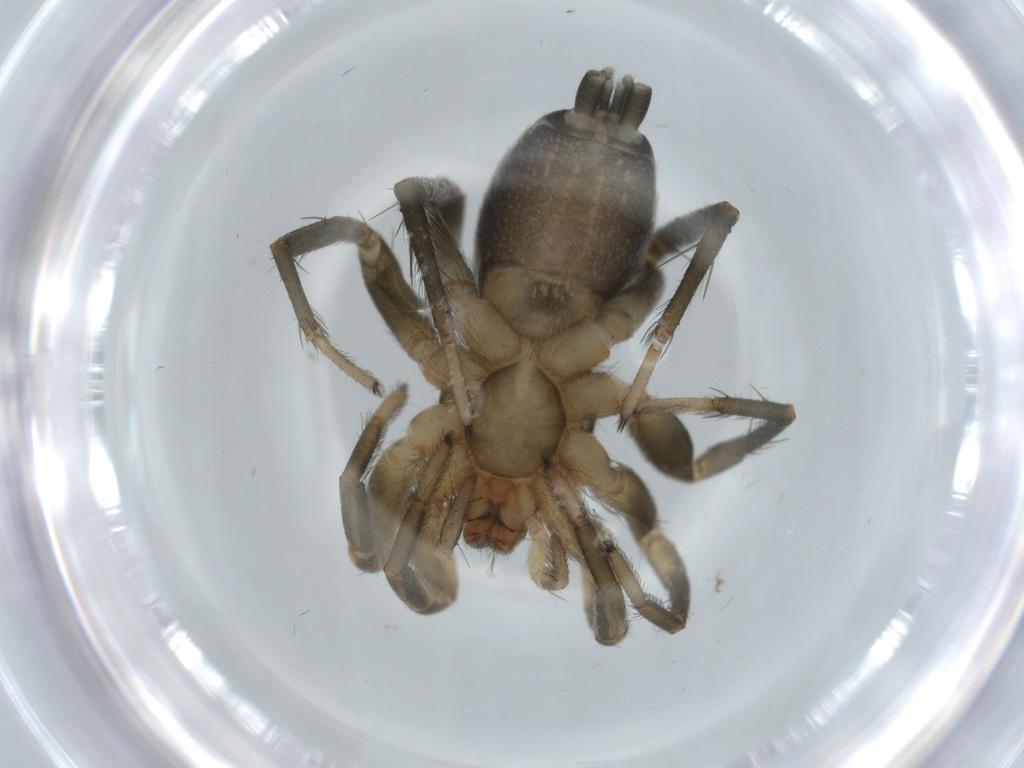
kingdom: Animalia
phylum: Arthropoda
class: Arachnida
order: Araneae
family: Gnaphosidae
